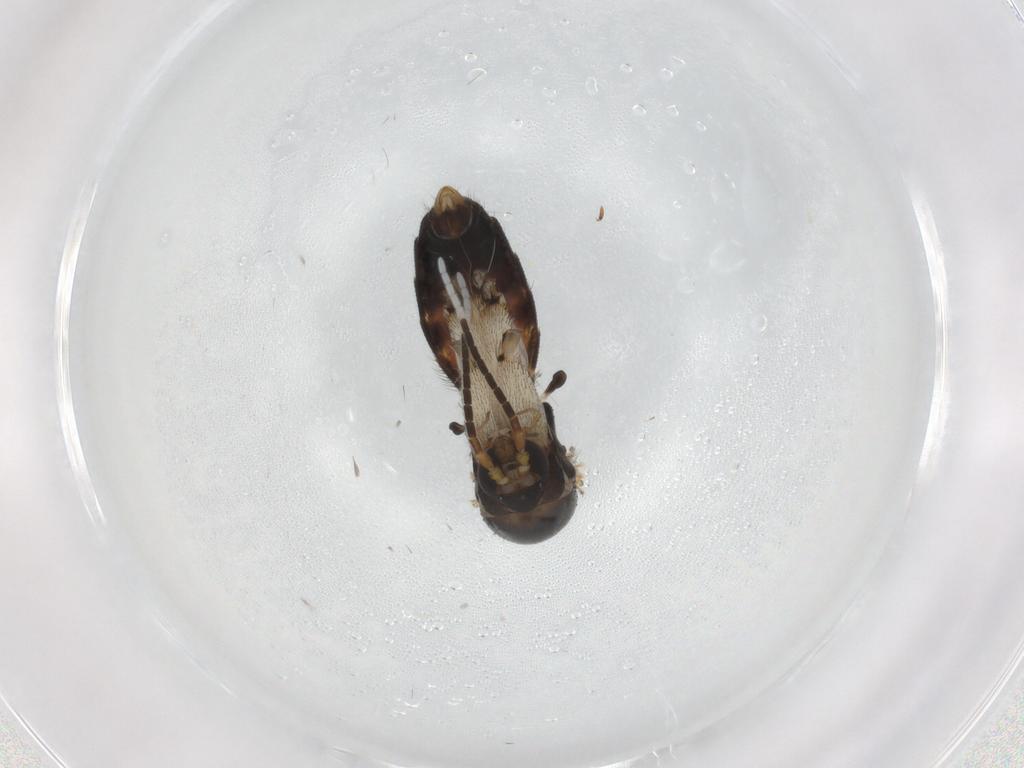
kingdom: Animalia
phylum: Arthropoda
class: Insecta
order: Diptera
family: Mycetophilidae
